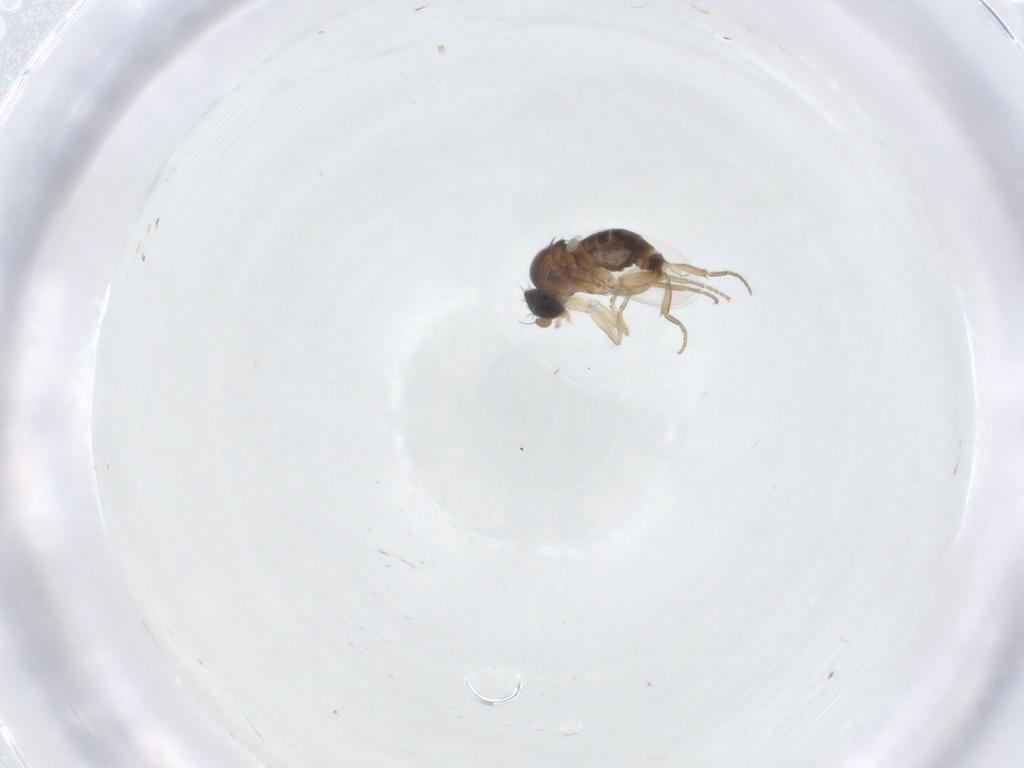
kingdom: Animalia
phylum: Arthropoda
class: Insecta
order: Diptera
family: Phoridae
